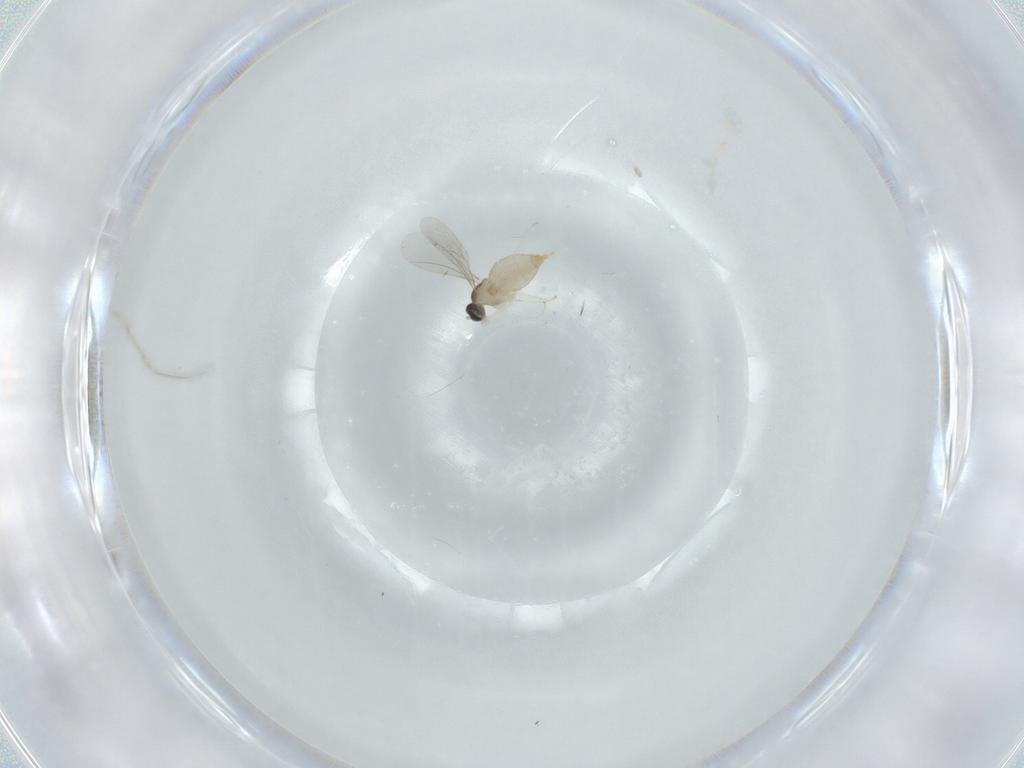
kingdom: Animalia
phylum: Arthropoda
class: Insecta
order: Diptera
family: Cecidomyiidae
